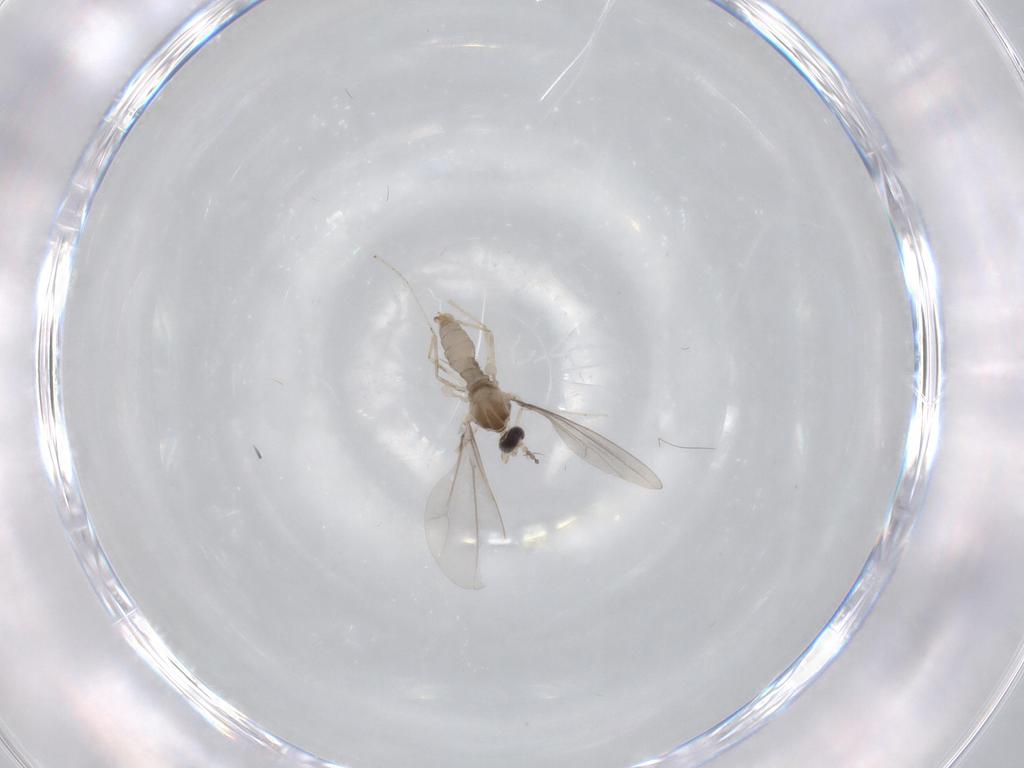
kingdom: Animalia
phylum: Arthropoda
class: Insecta
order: Diptera
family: Cecidomyiidae
